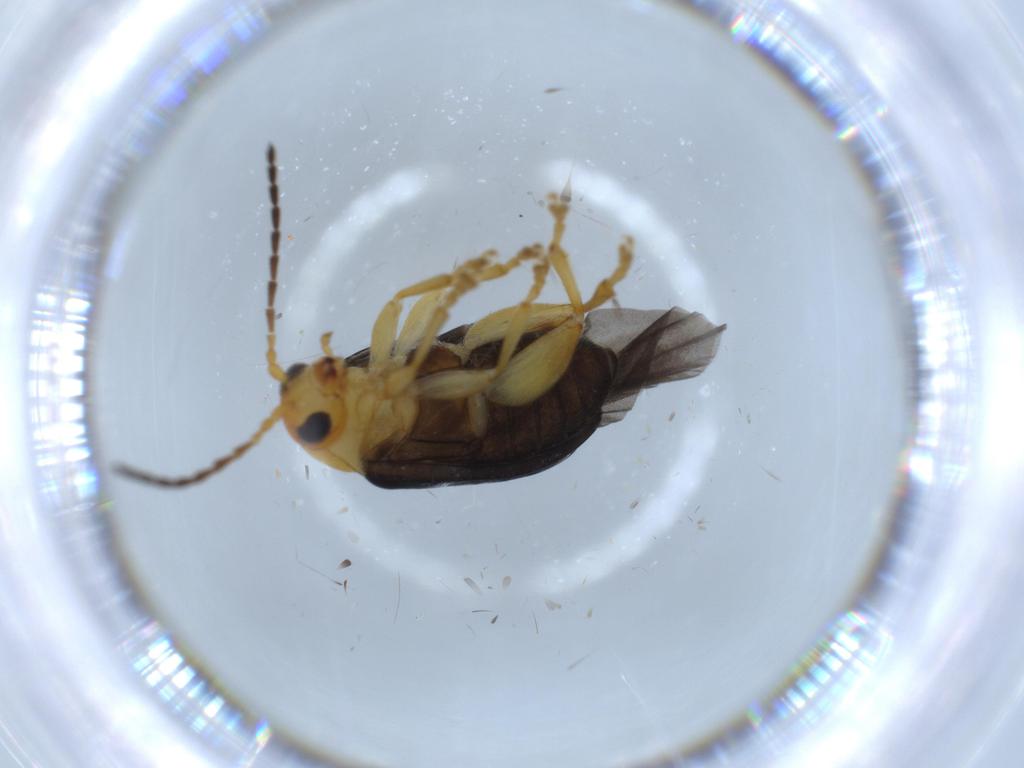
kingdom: Animalia
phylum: Arthropoda
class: Insecta
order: Coleoptera
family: Chrysomelidae
